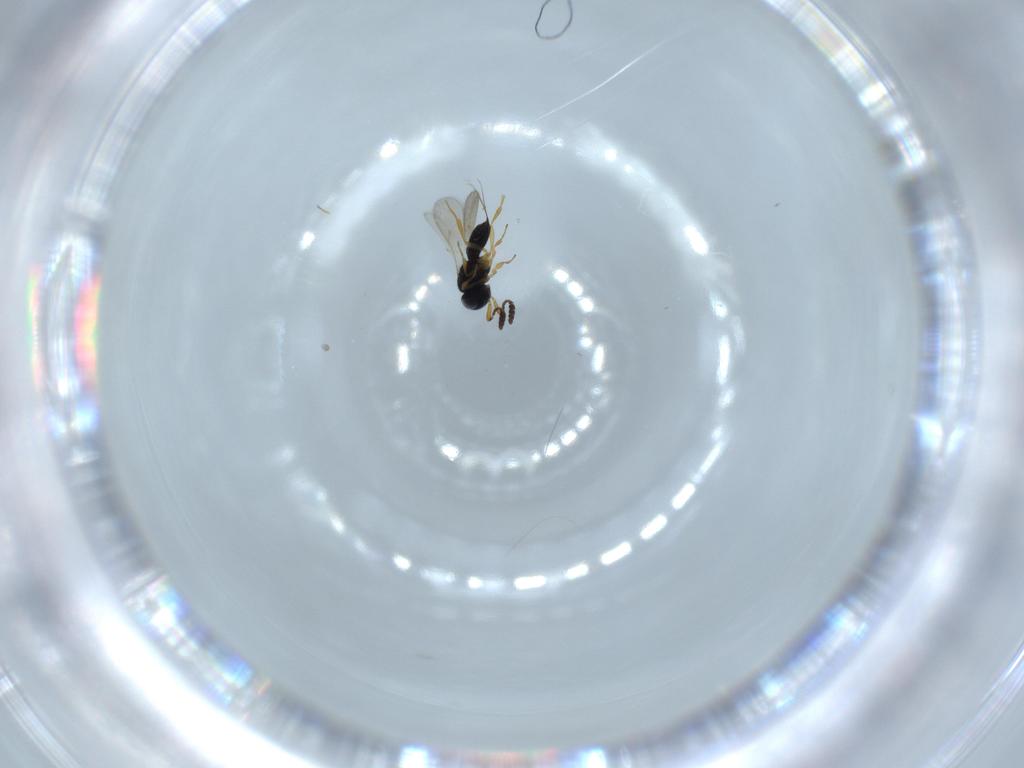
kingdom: Animalia
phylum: Arthropoda
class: Insecta
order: Hymenoptera
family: Scelionidae
